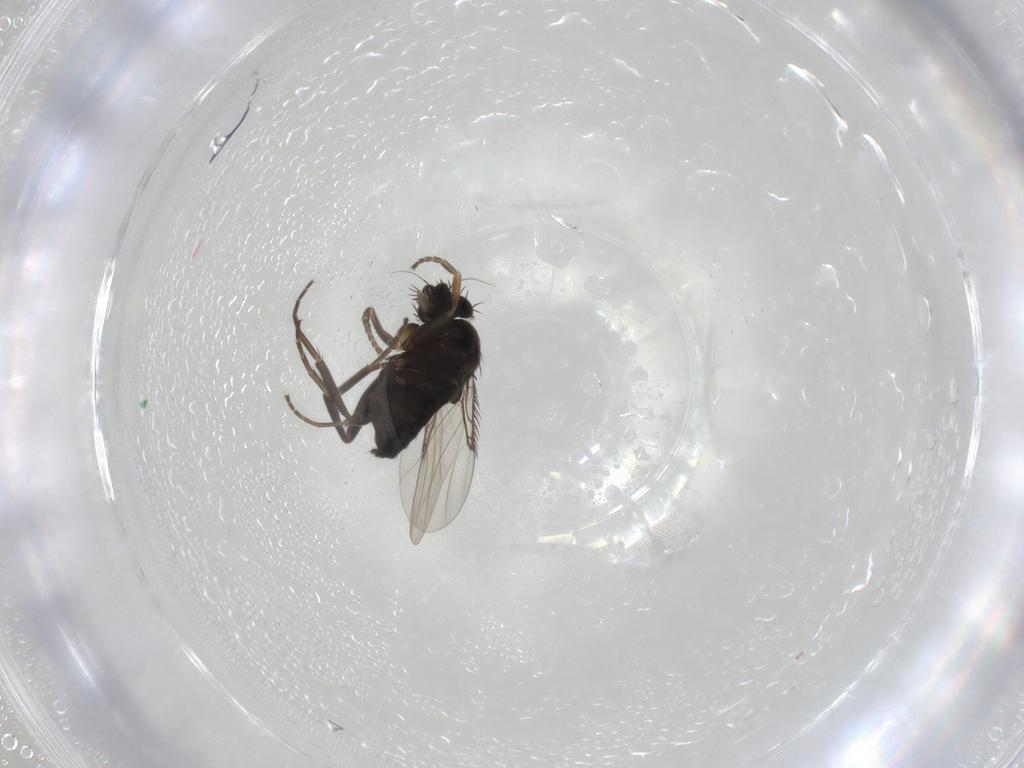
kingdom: Animalia
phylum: Arthropoda
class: Insecta
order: Diptera
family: Phoridae
